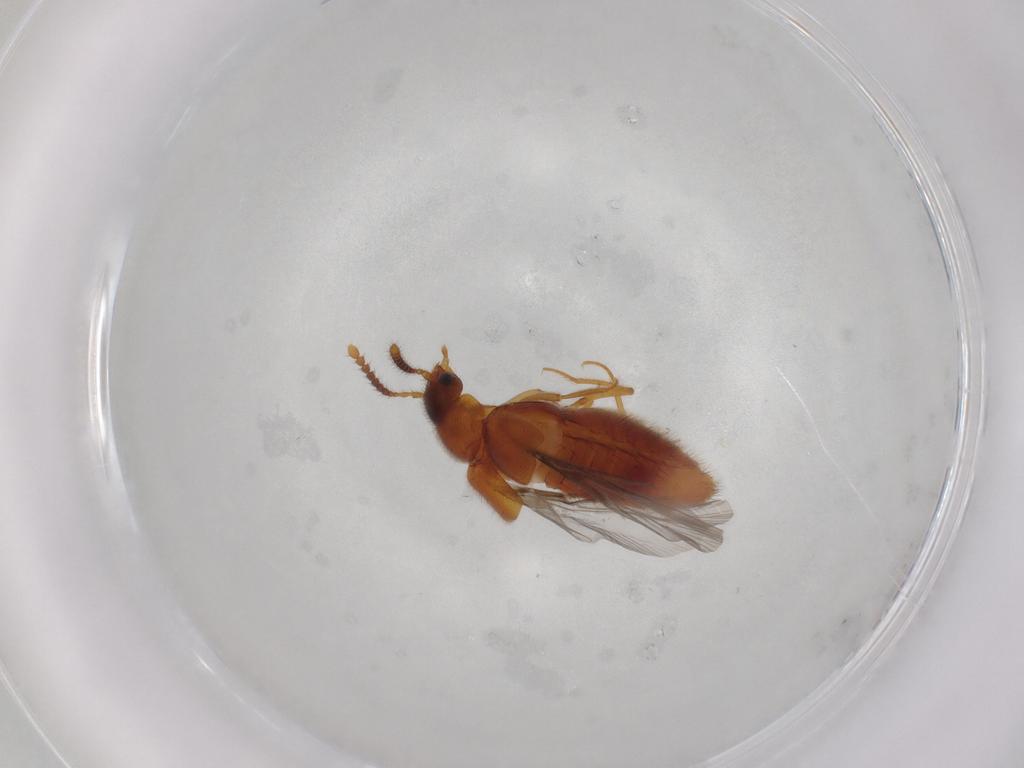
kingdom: Animalia
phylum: Arthropoda
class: Insecta
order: Coleoptera
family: Staphylinidae
